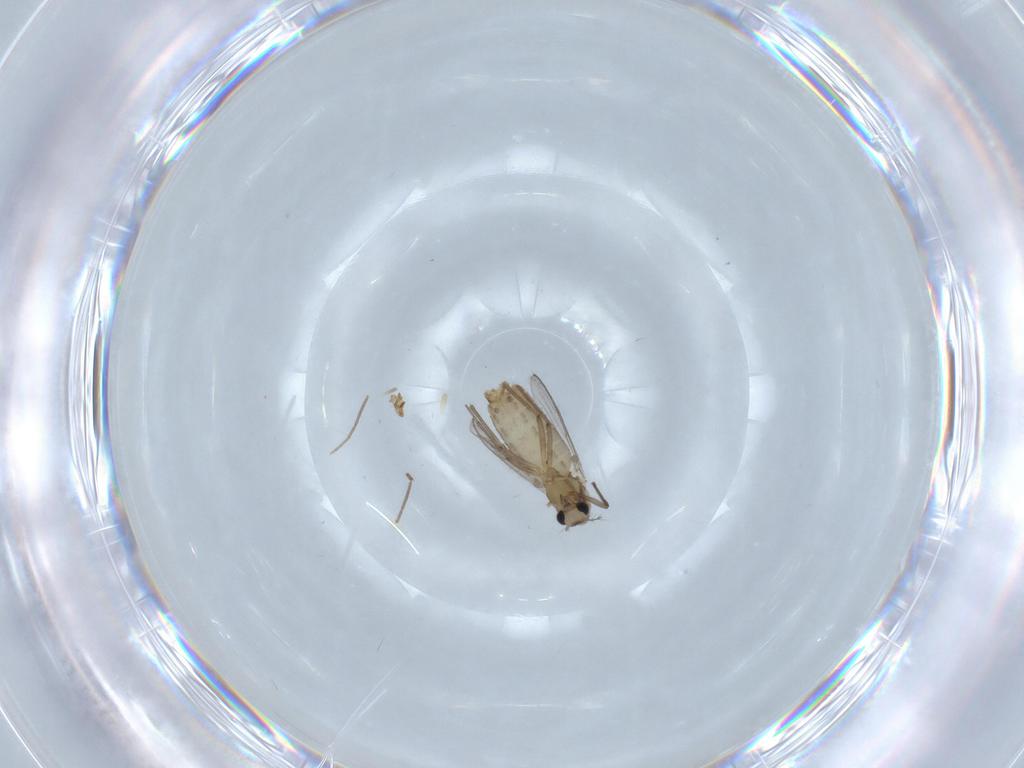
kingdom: Animalia
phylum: Arthropoda
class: Insecta
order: Diptera
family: Chironomidae
